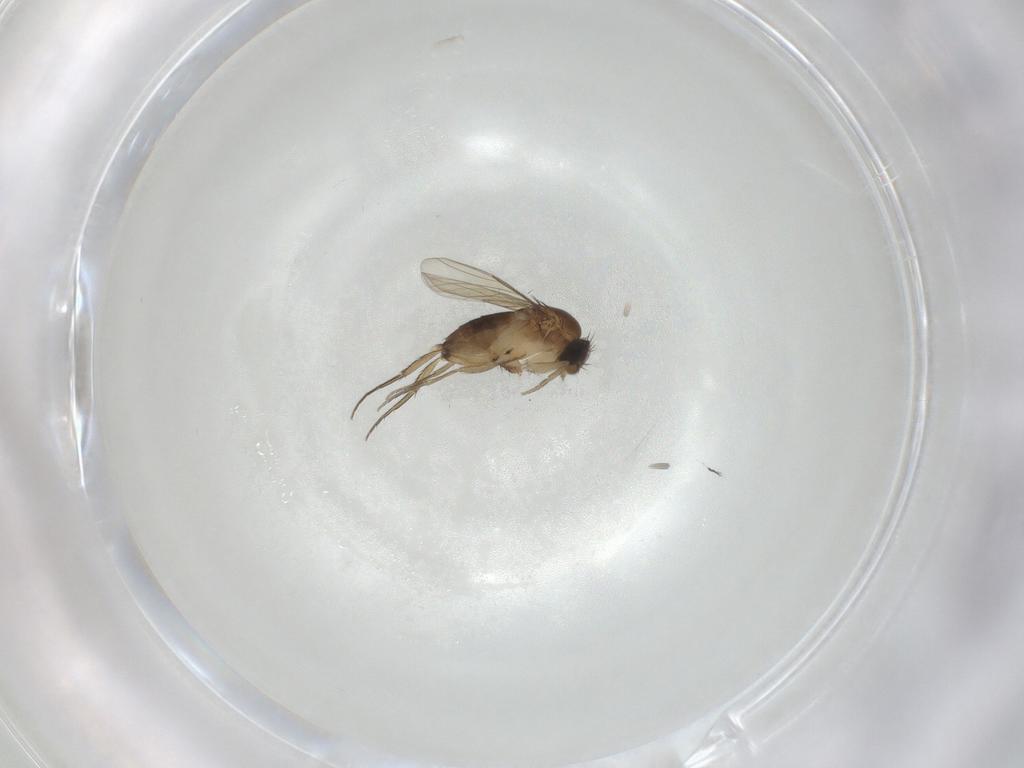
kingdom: Animalia
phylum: Arthropoda
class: Insecta
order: Diptera
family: Phoridae
